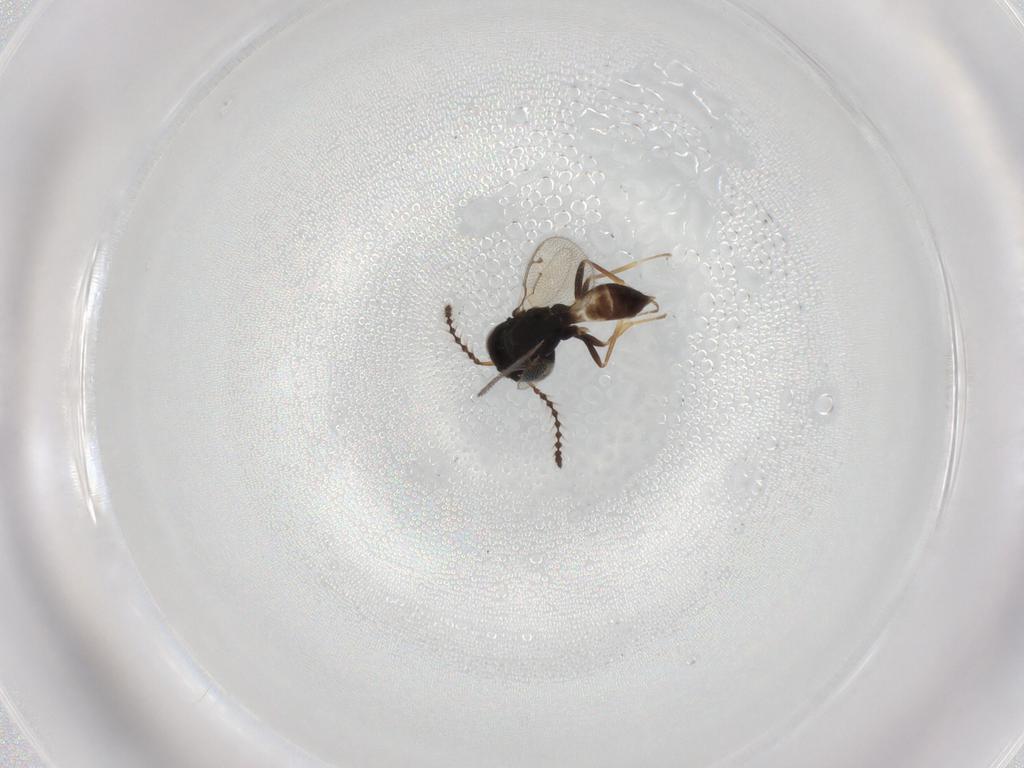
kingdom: Animalia
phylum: Arthropoda
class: Insecta
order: Hymenoptera
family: Pteromalidae
